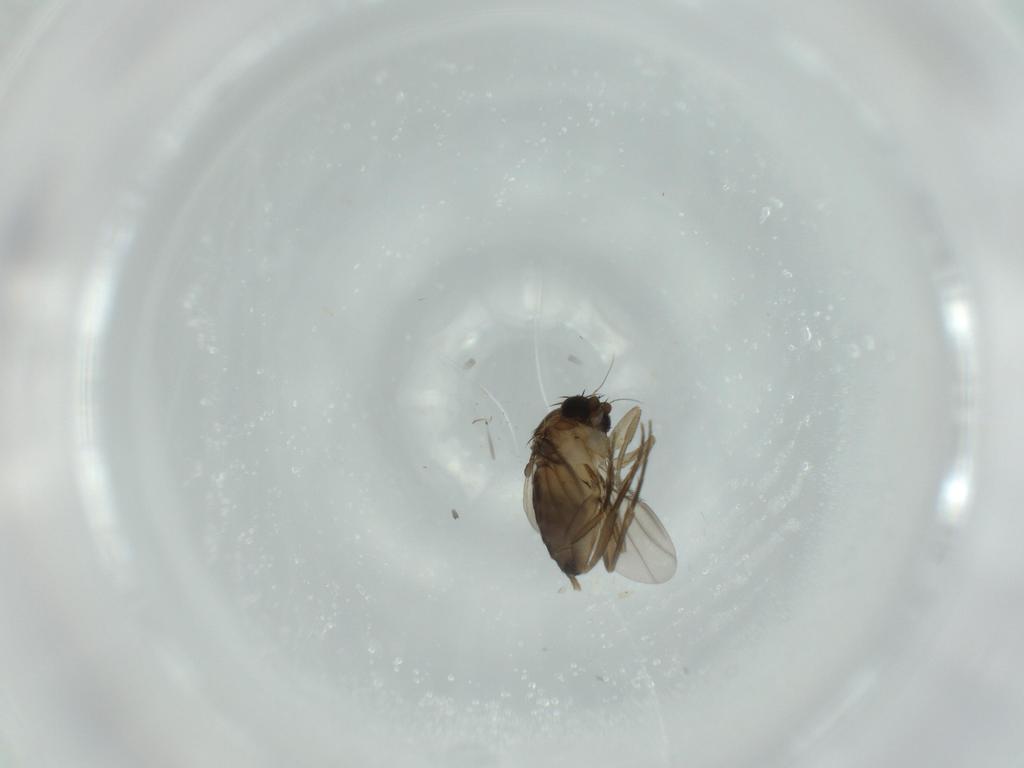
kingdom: Animalia
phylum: Arthropoda
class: Insecta
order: Diptera
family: Phoridae
